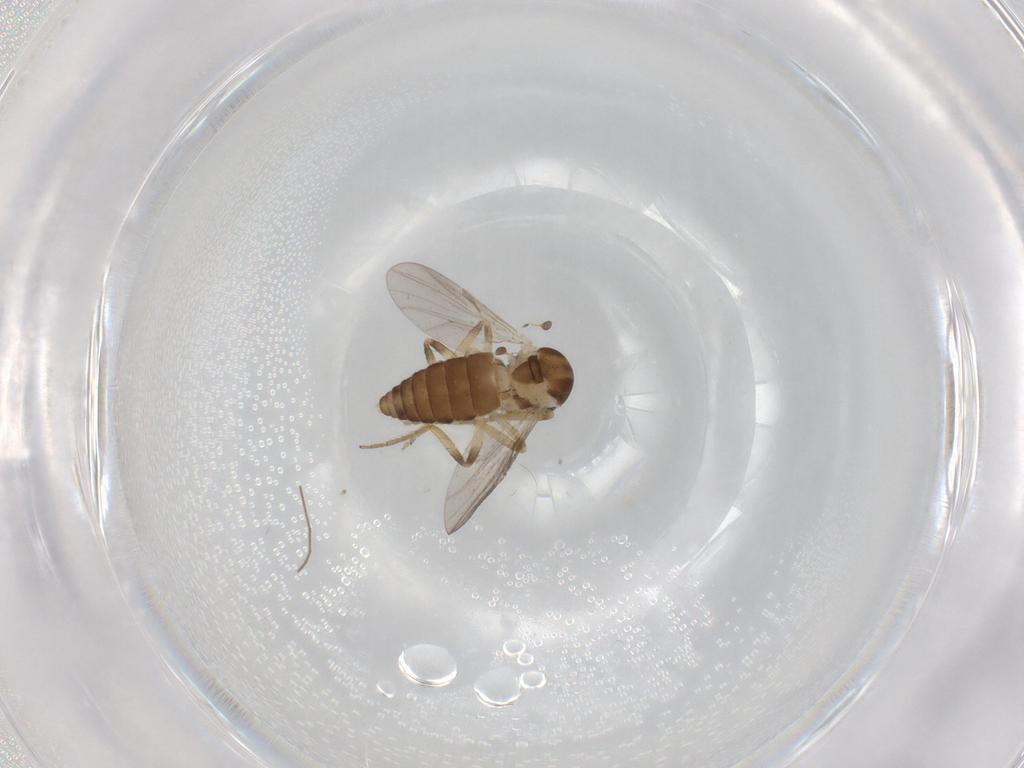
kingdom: Animalia
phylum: Arthropoda
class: Insecta
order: Diptera
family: Ceratopogonidae
